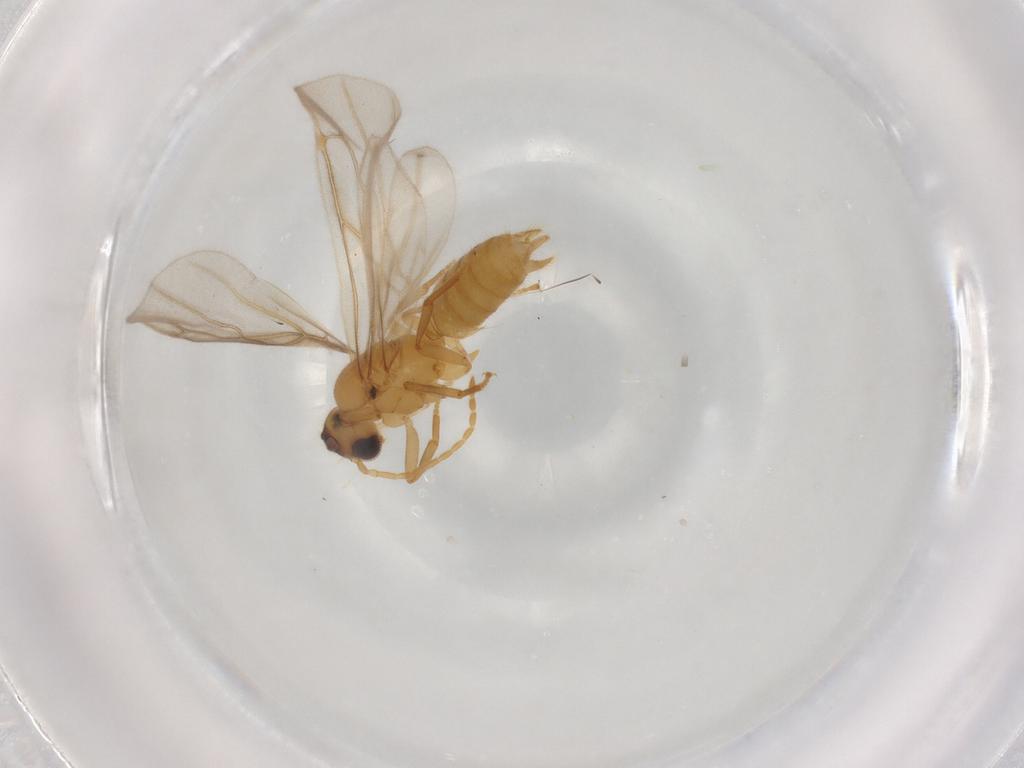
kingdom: Animalia
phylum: Arthropoda
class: Insecta
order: Hymenoptera
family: Formicidae
